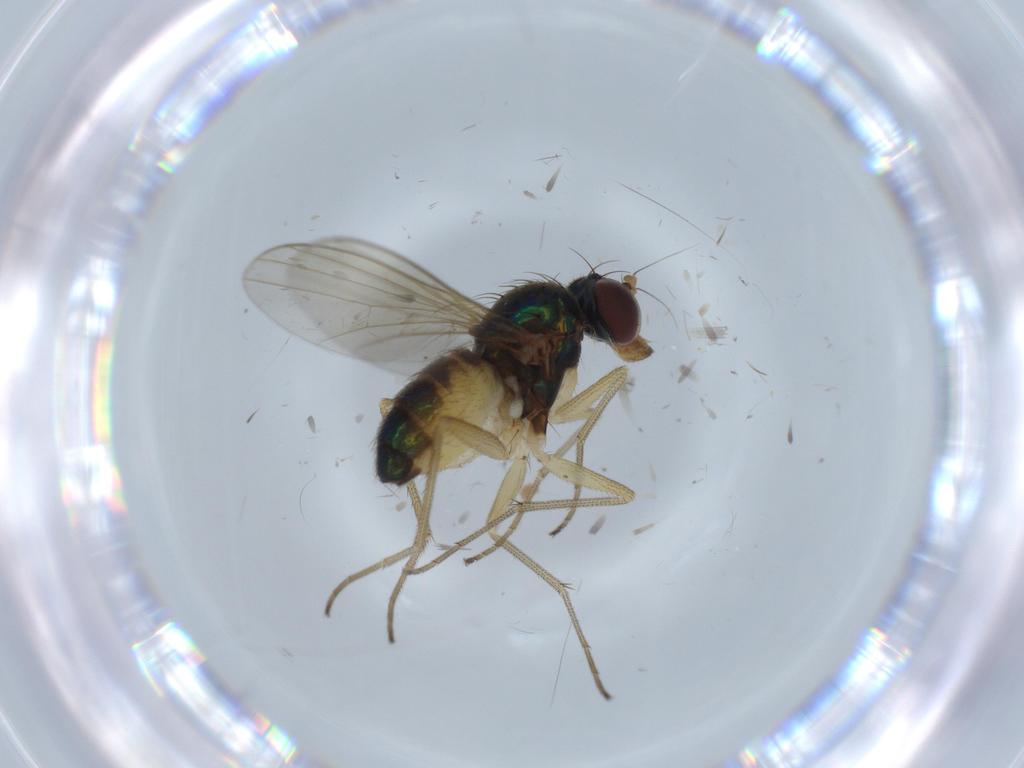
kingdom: Animalia
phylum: Arthropoda
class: Insecta
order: Diptera
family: Dolichopodidae
